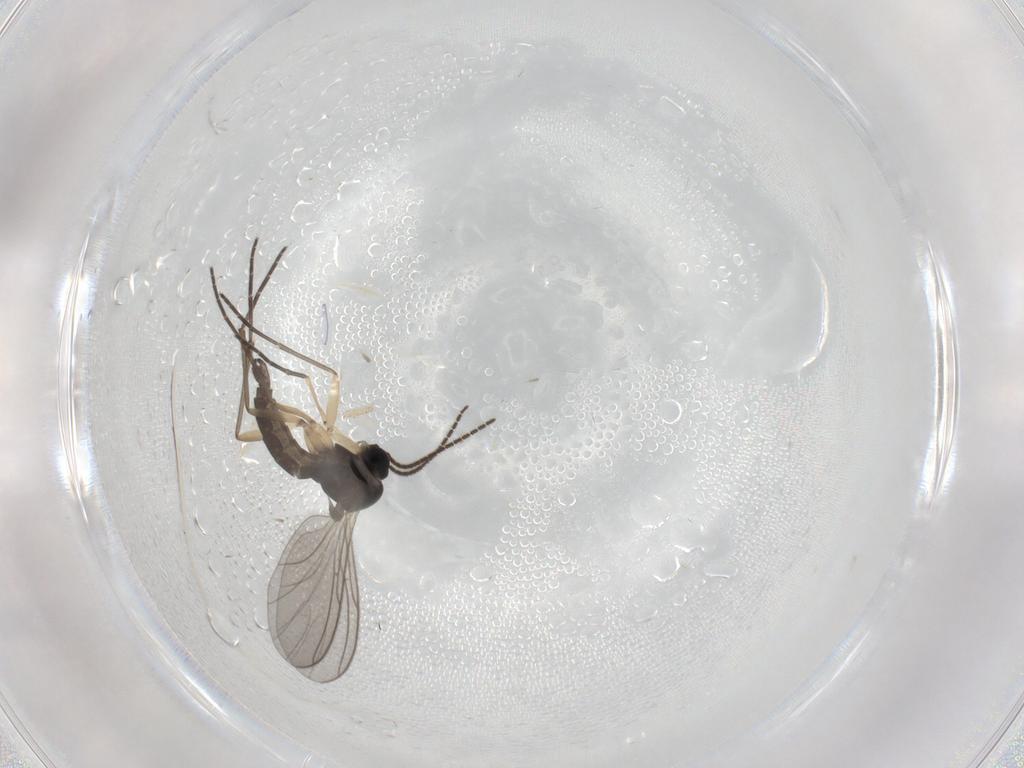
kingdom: Animalia
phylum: Arthropoda
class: Insecta
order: Diptera
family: Sciaridae
